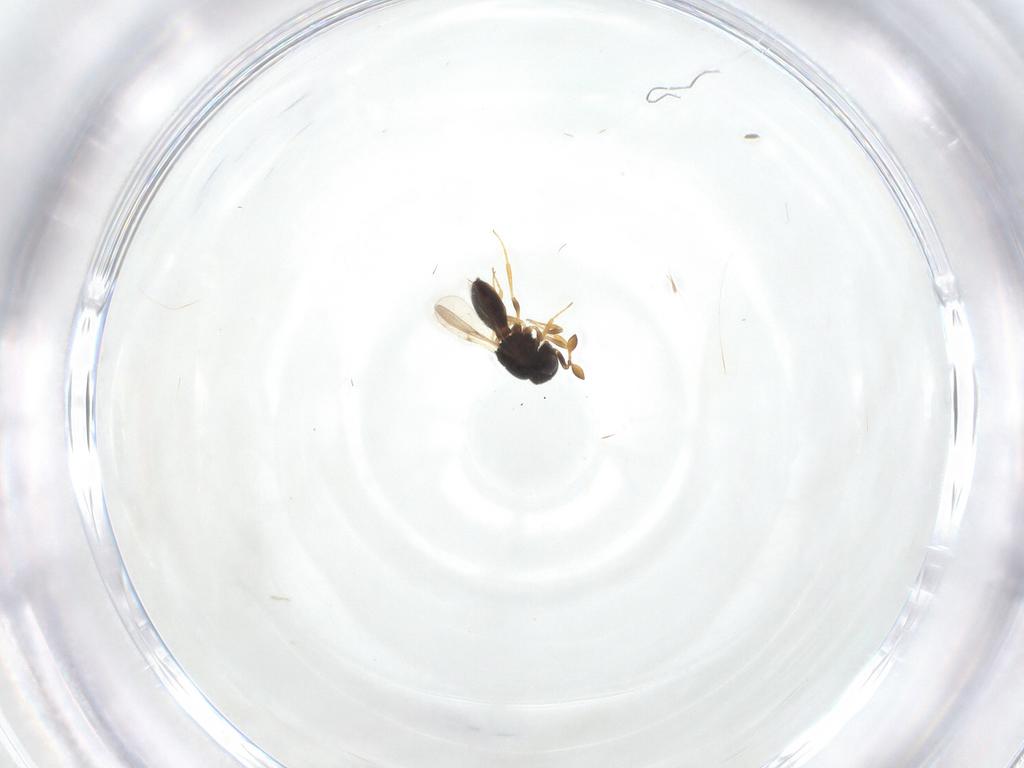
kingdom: Animalia
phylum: Arthropoda
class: Insecta
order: Hymenoptera
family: Scelionidae
